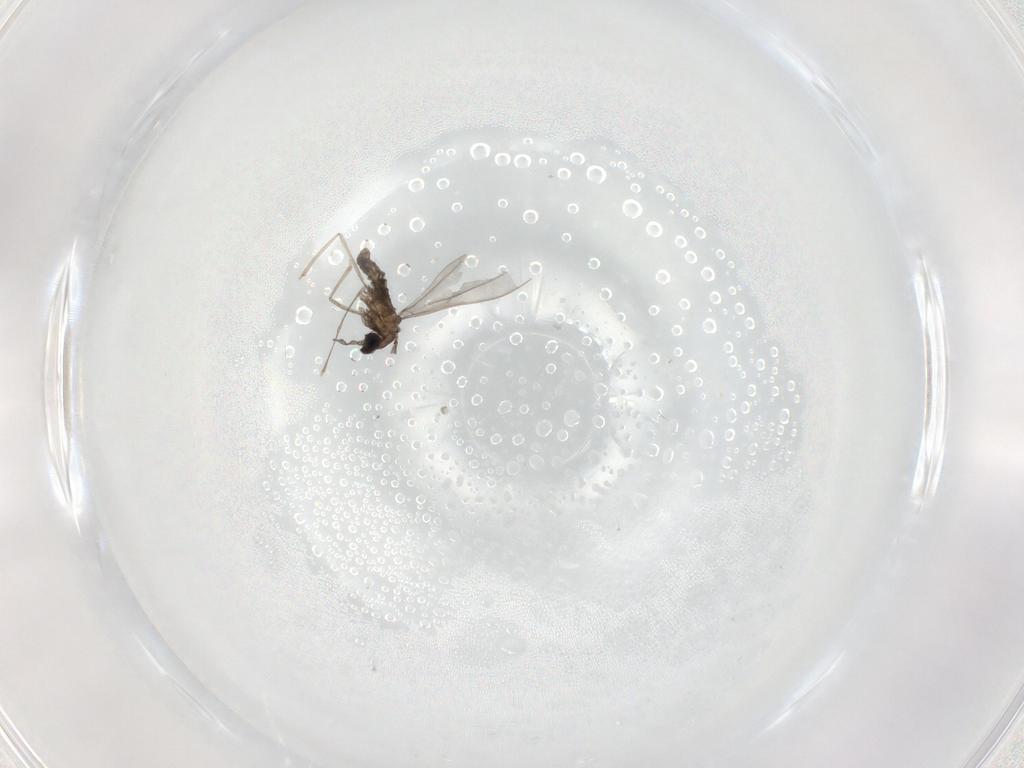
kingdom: Animalia
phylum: Arthropoda
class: Insecta
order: Diptera
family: Cecidomyiidae
